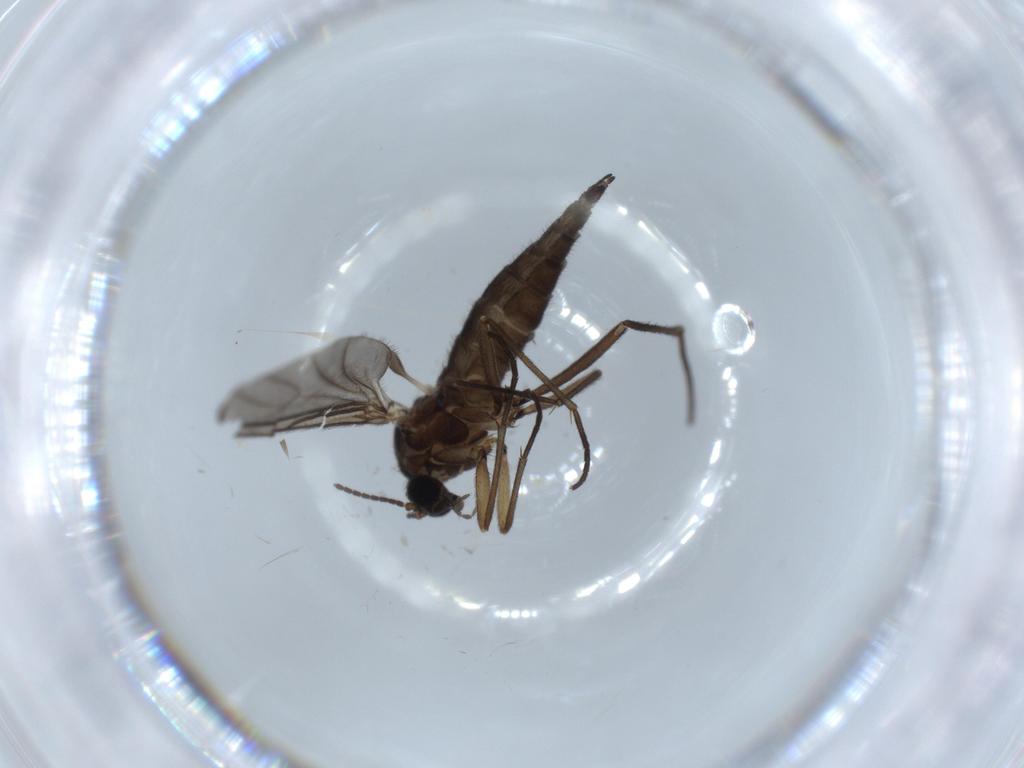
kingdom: Animalia
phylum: Arthropoda
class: Insecta
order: Diptera
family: Sciaridae
